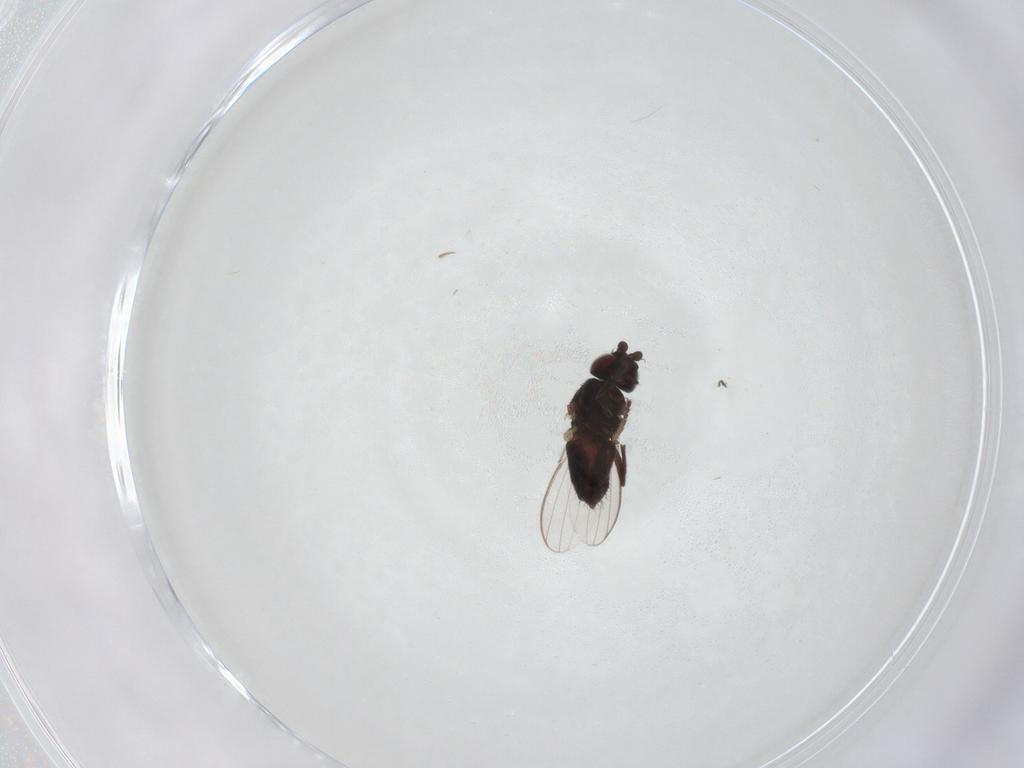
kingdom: Animalia
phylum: Arthropoda
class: Insecta
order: Diptera
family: Milichiidae
